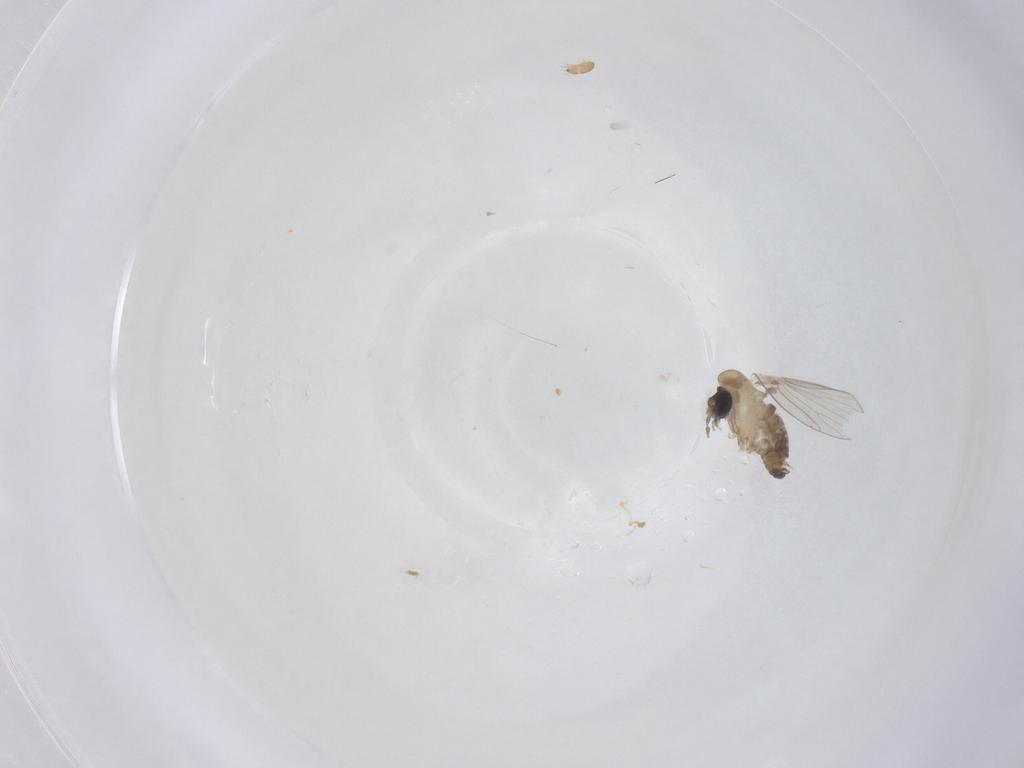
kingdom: Animalia
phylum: Arthropoda
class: Insecta
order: Diptera
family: Psychodidae
